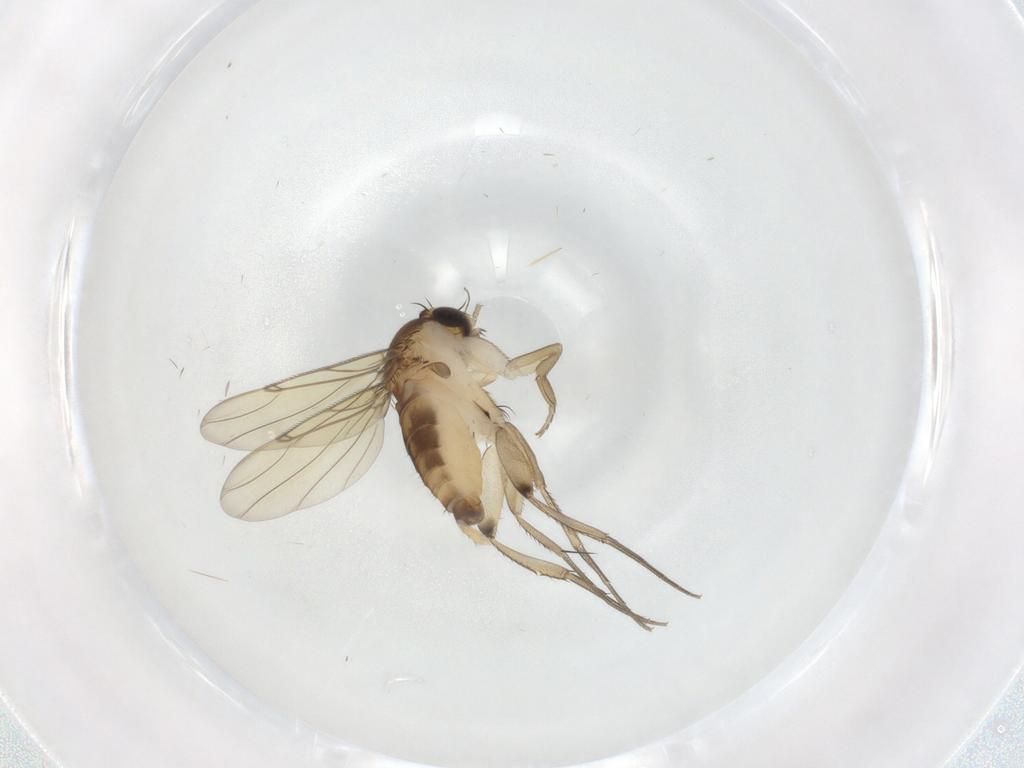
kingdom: Animalia
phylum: Arthropoda
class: Insecta
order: Diptera
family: Phoridae
